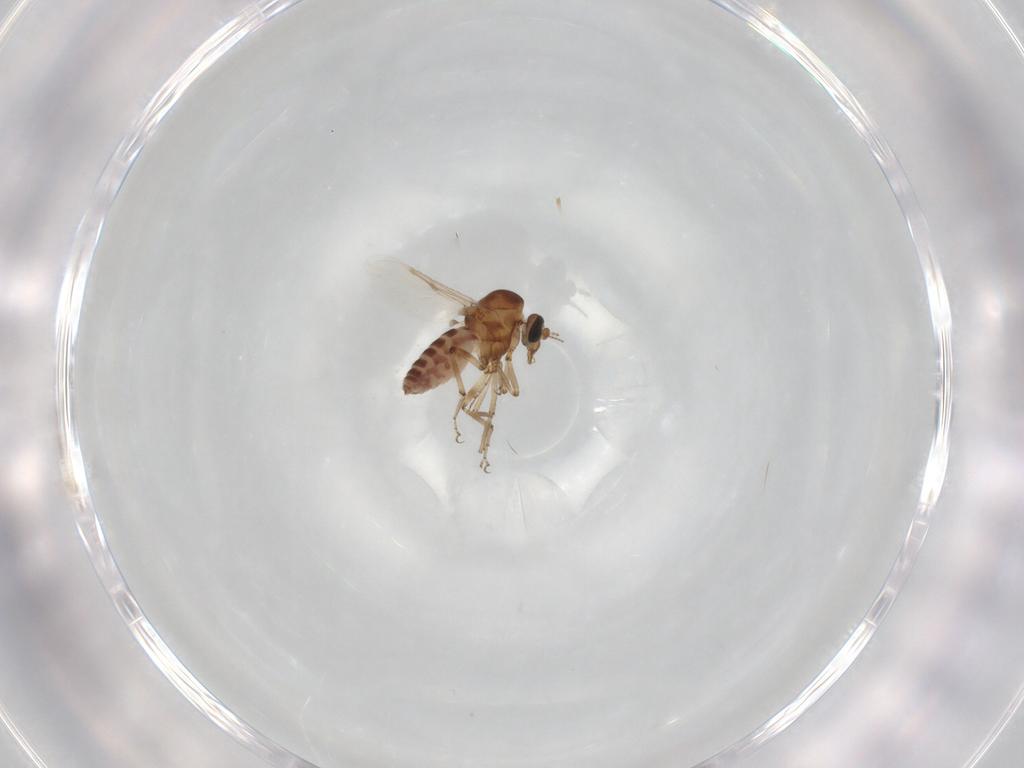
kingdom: Animalia
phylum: Arthropoda
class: Insecta
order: Diptera
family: Ceratopogonidae
